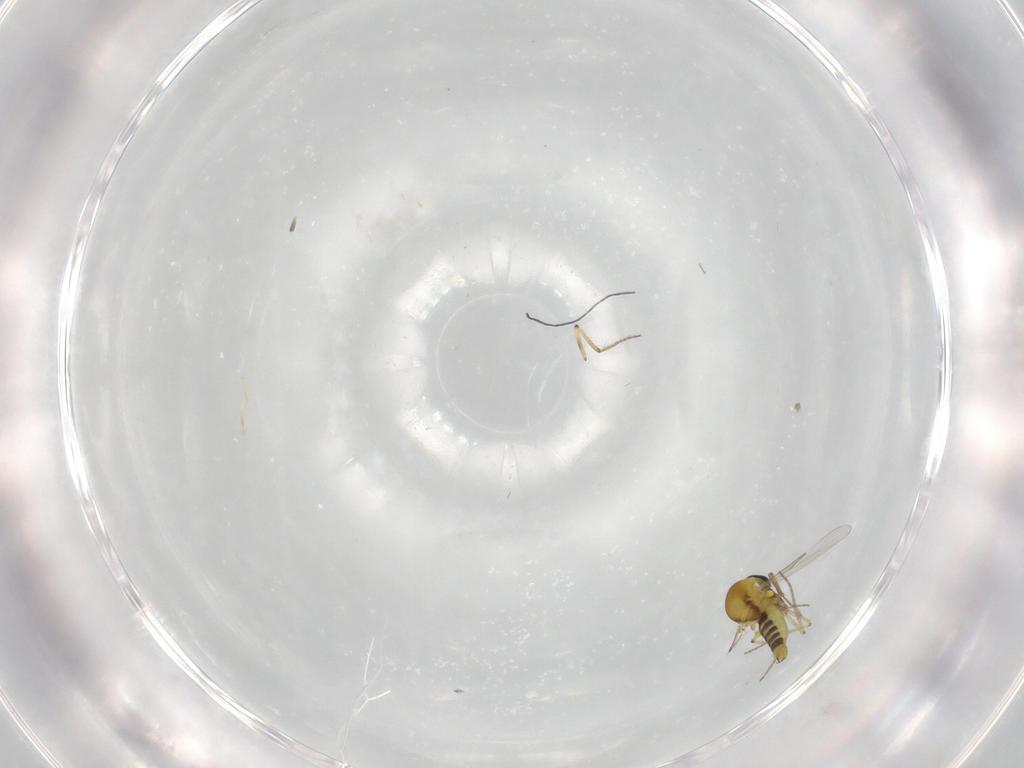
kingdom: Animalia
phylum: Arthropoda
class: Insecta
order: Diptera
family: Ceratopogonidae
